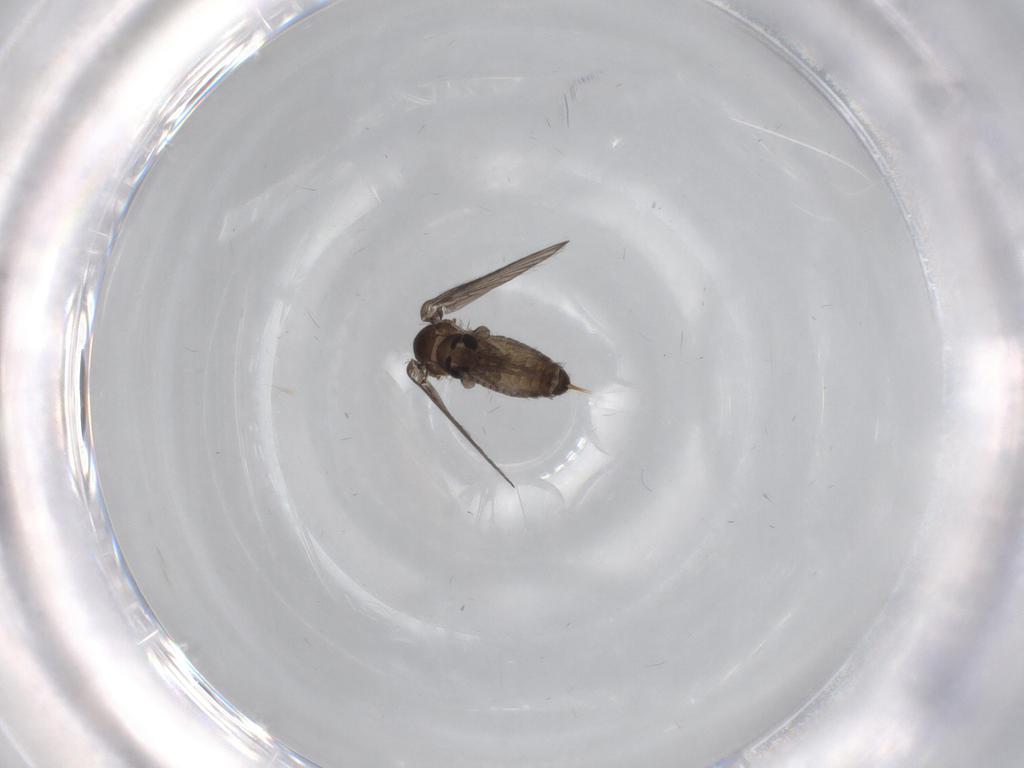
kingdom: Animalia
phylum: Arthropoda
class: Insecta
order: Diptera
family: Psychodidae
